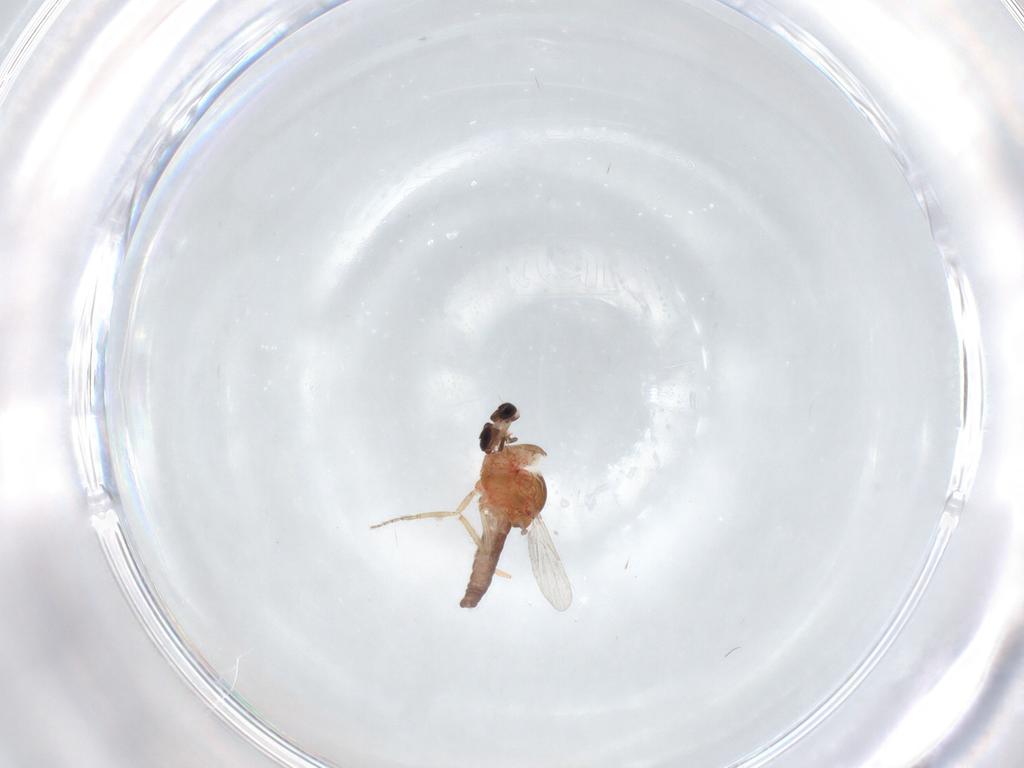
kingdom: Animalia
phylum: Arthropoda
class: Insecta
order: Diptera
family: Ceratopogonidae
